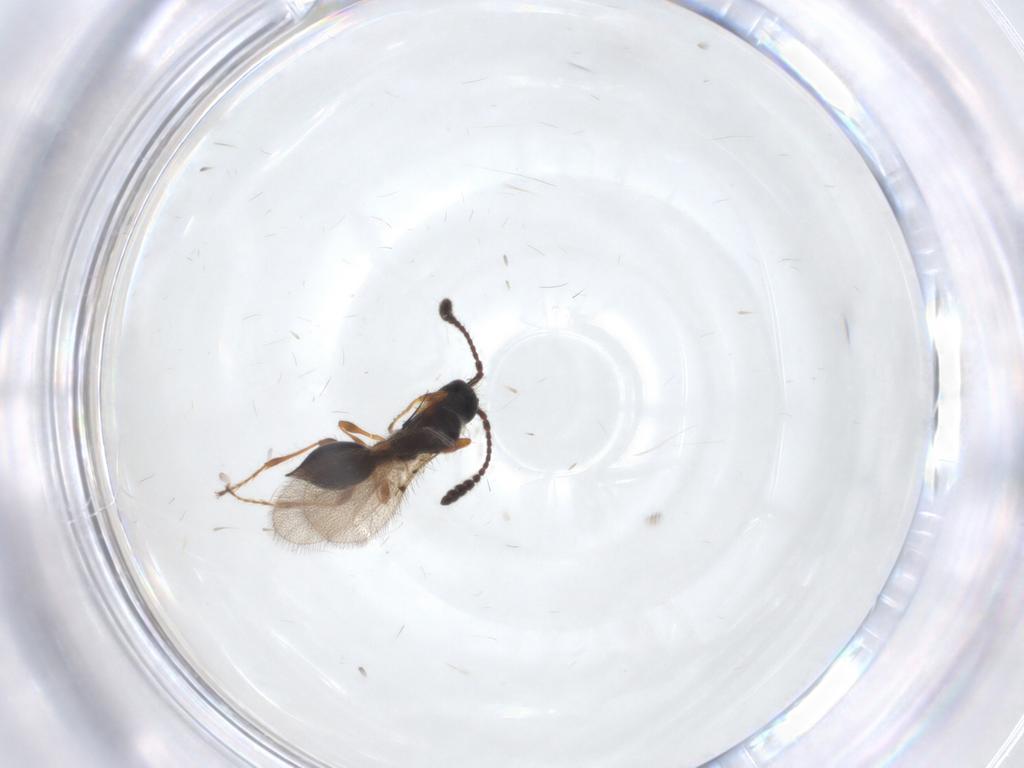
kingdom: Animalia
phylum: Arthropoda
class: Insecta
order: Hymenoptera
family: Diapriidae
